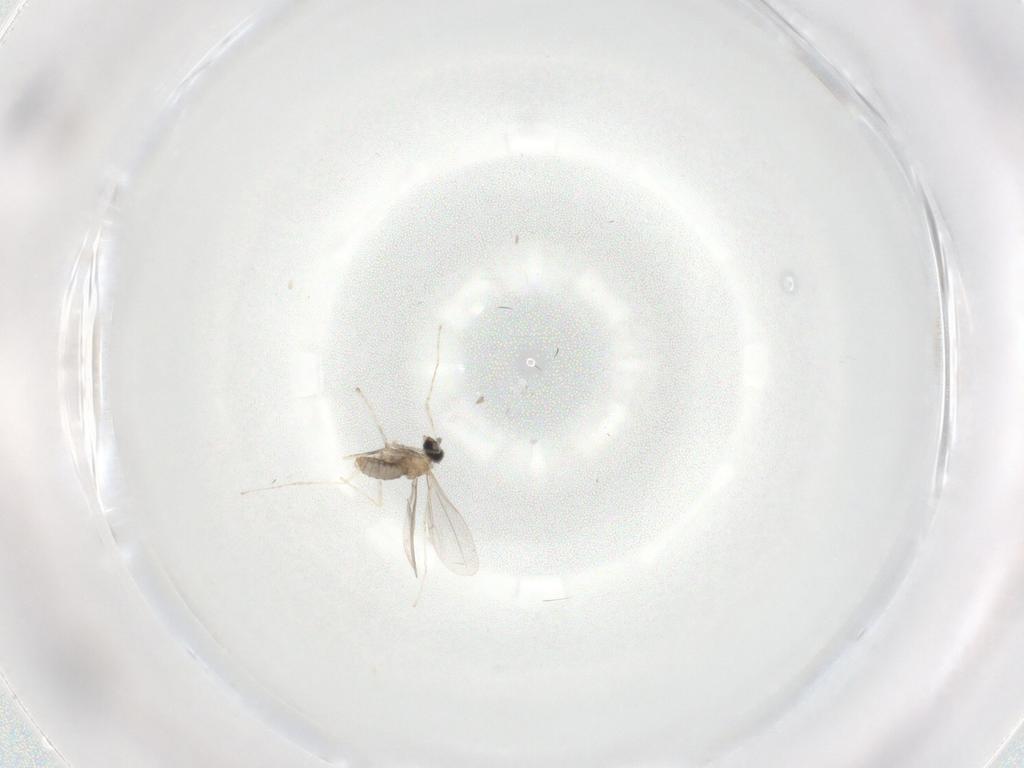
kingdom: Animalia
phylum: Arthropoda
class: Insecta
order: Diptera
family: Cecidomyiidae
